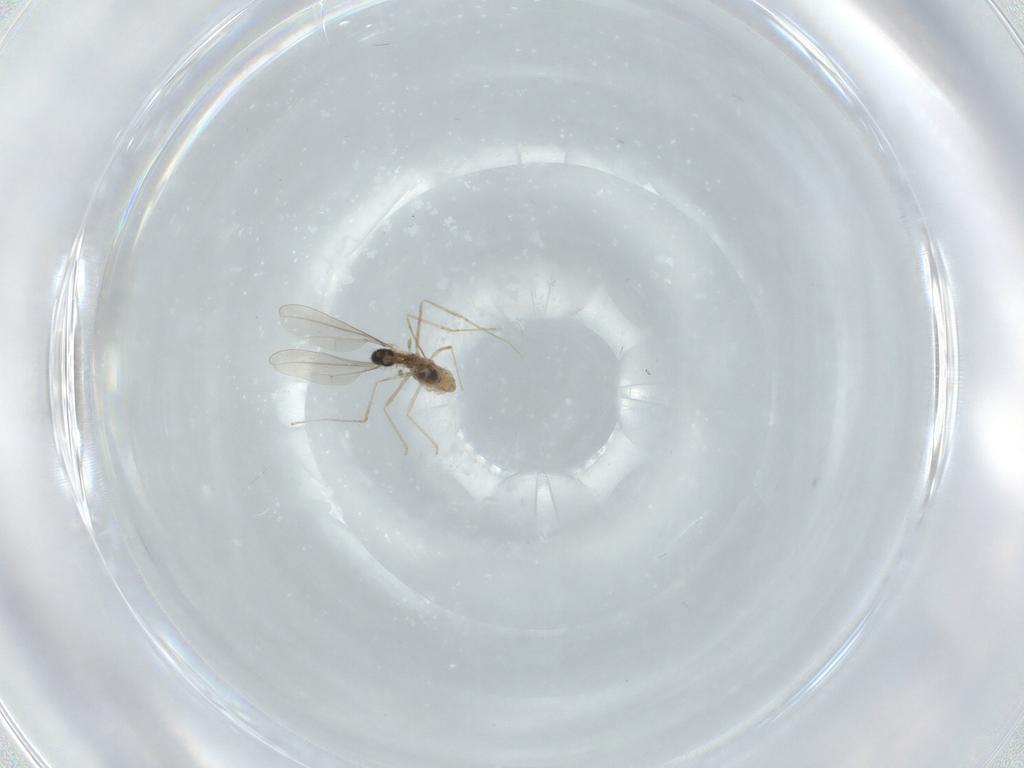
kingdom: Animalia
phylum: Arthropoda
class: Insecta
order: Diptera
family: Cecidomyiidae
